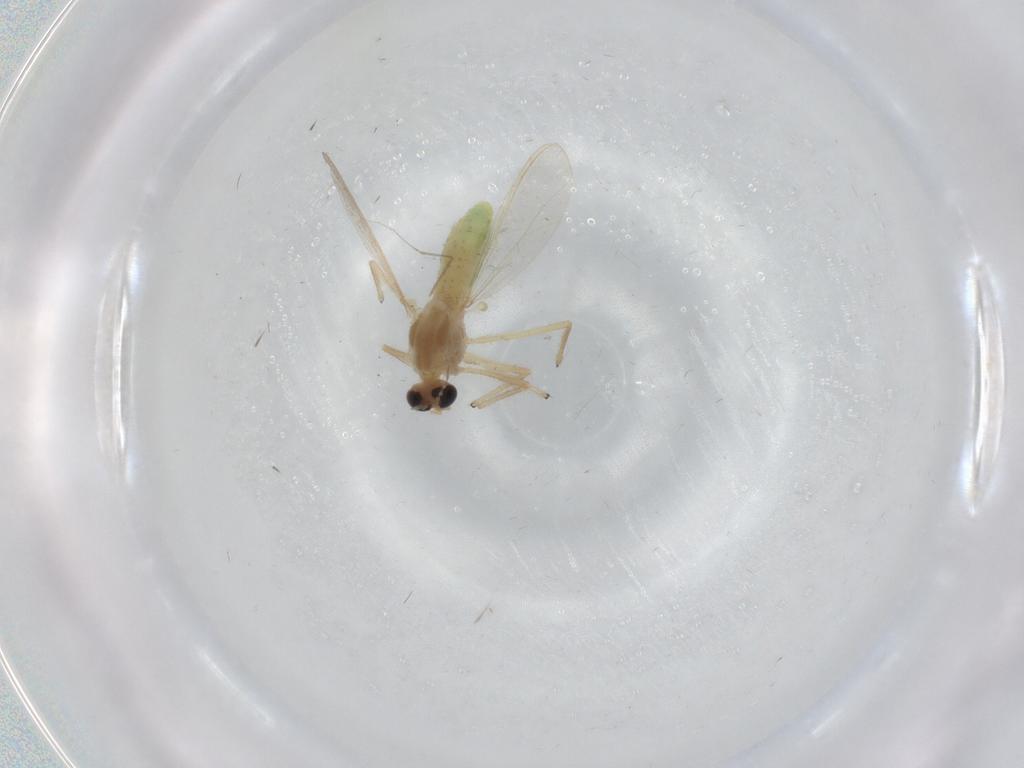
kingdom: Animalia
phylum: Arthropoda
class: Insecta
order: Diptera
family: Chironomidae
